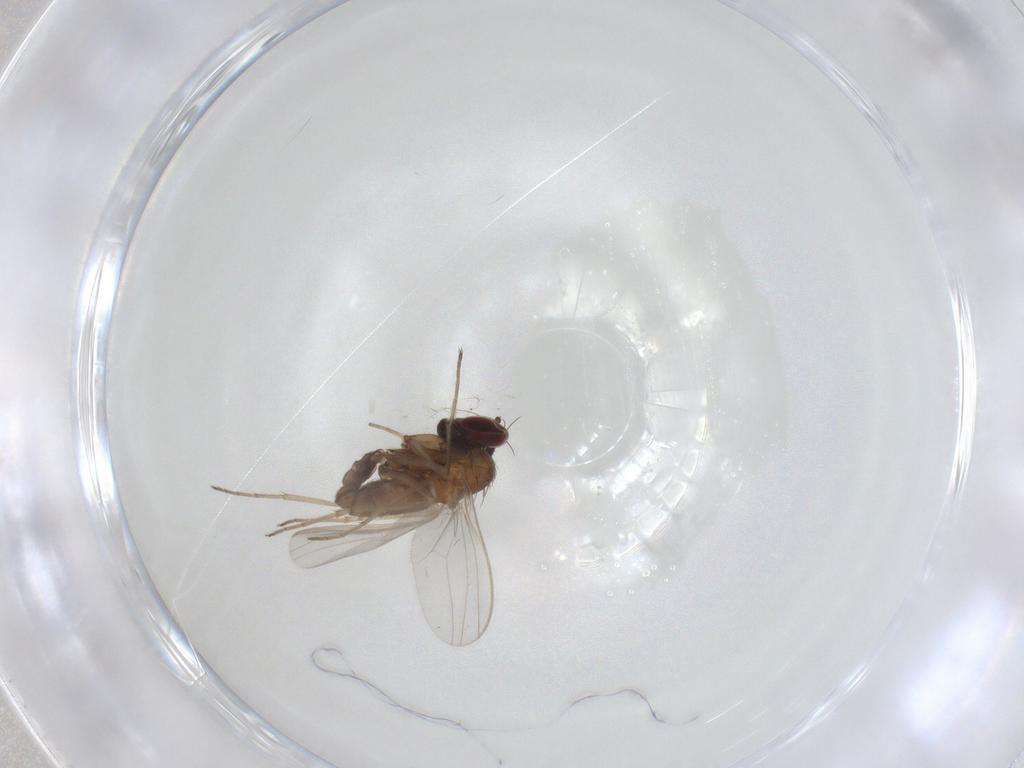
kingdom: Animalia
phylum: Arthropoda
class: Insecta
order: Diptera
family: Dolichopodidae
